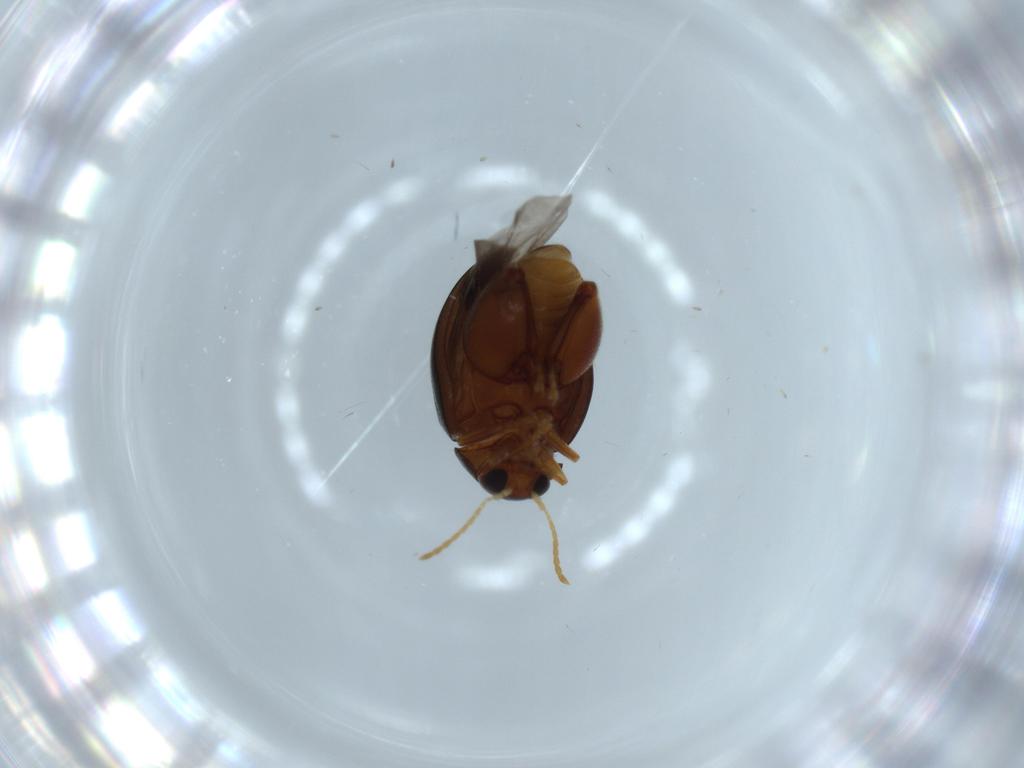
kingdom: Animalia
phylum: Arthropoda
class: Insecta
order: Coleoptera
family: Chrysomelidae
